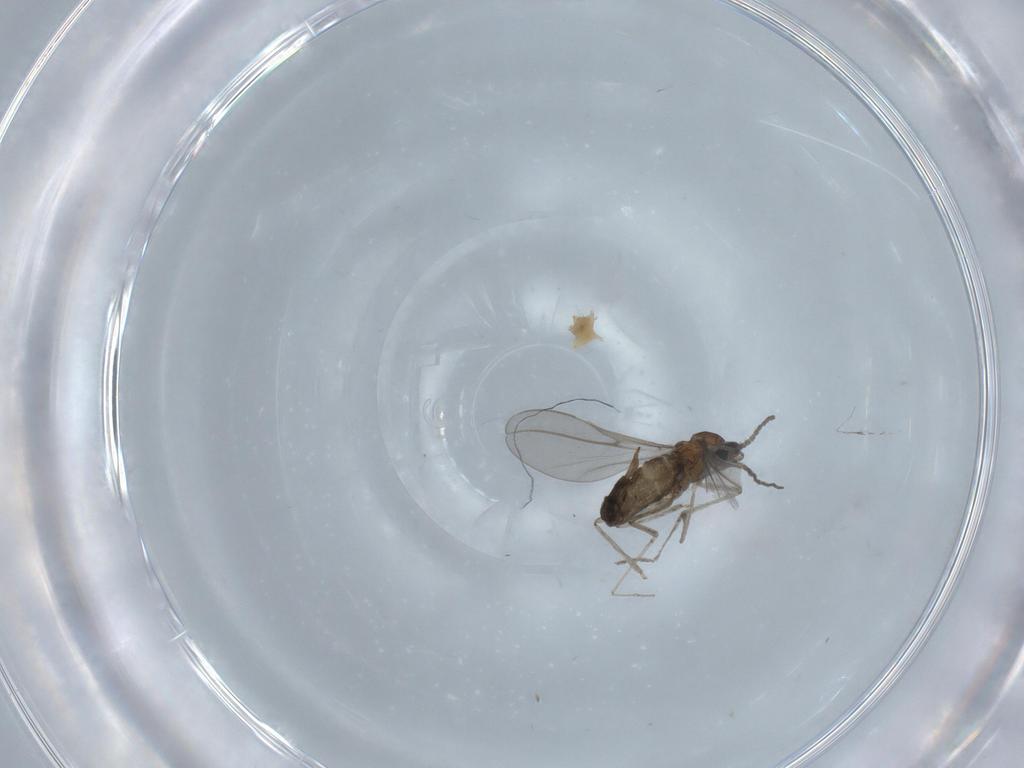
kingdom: Animalia
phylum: Arthropoda
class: Insecta
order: Diptera
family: Cecidomyiidae
